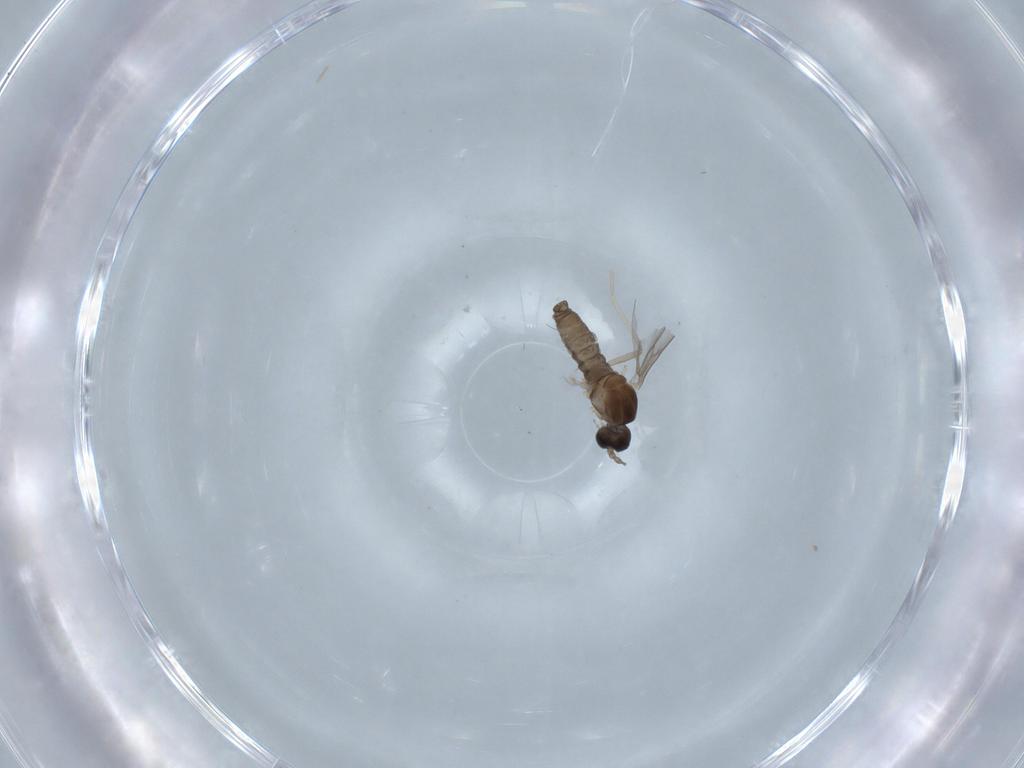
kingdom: Animalia
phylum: Arthropoda
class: Insecta
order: Diptera
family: Cecidomyiidae
